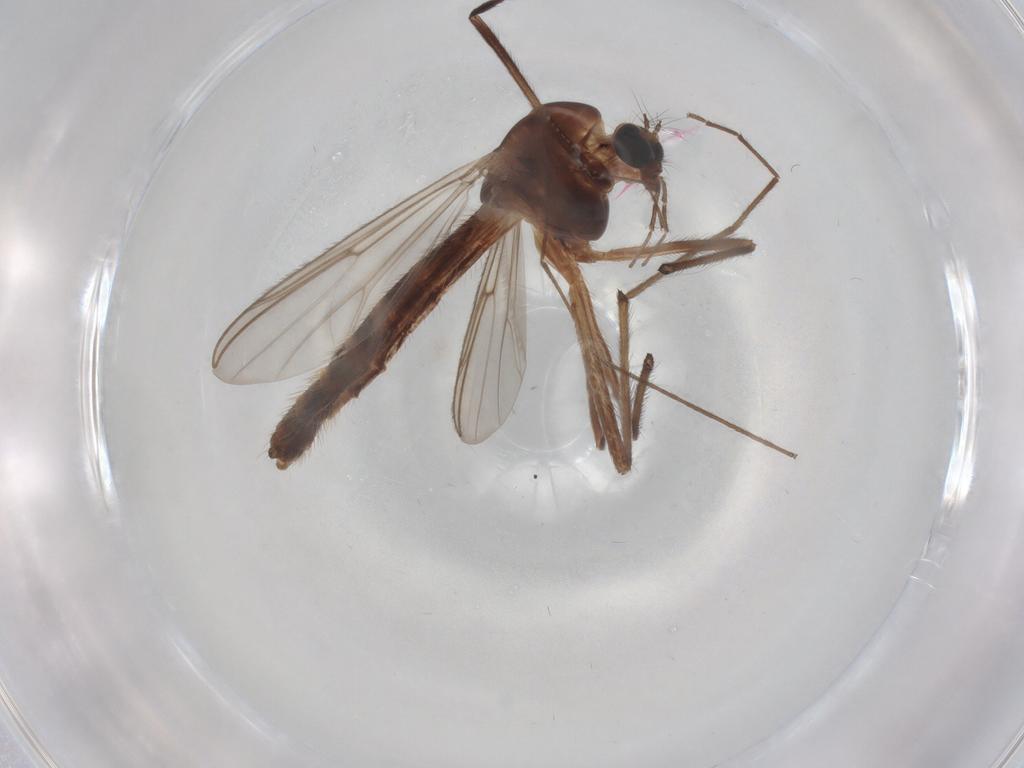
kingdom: Animalia
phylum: Arthropoda
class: Insecta
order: Diptera
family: Chironomidae
